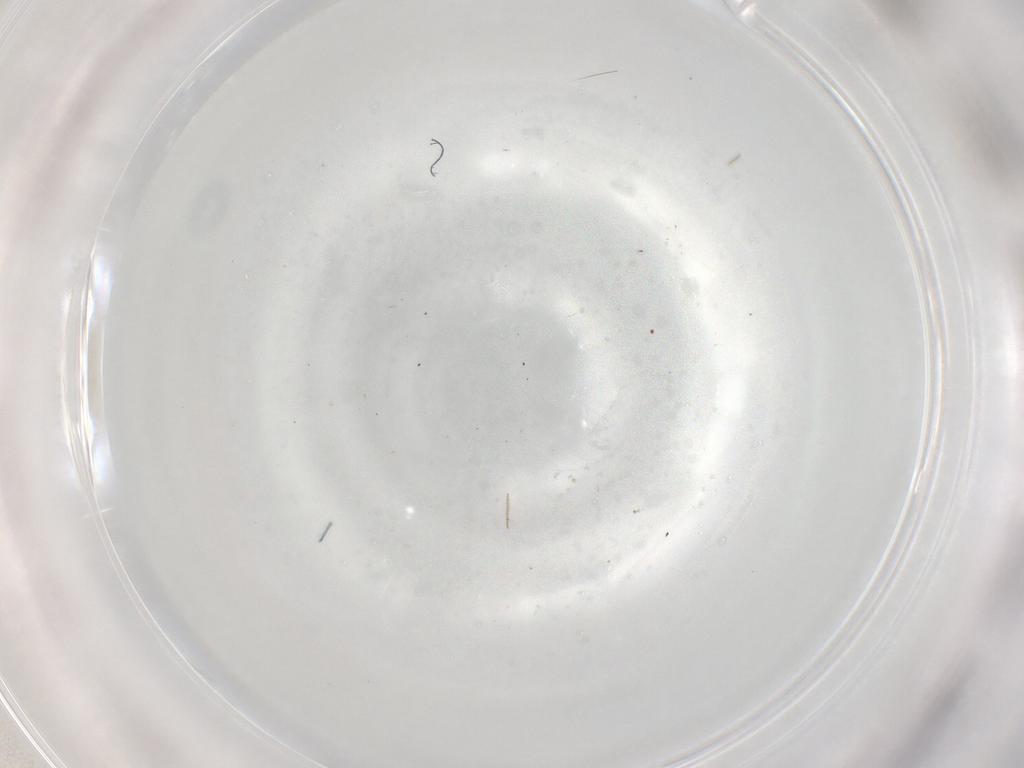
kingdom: Animalia
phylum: Arthropoda
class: Insecta
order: Diptera
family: Calliphoridae
